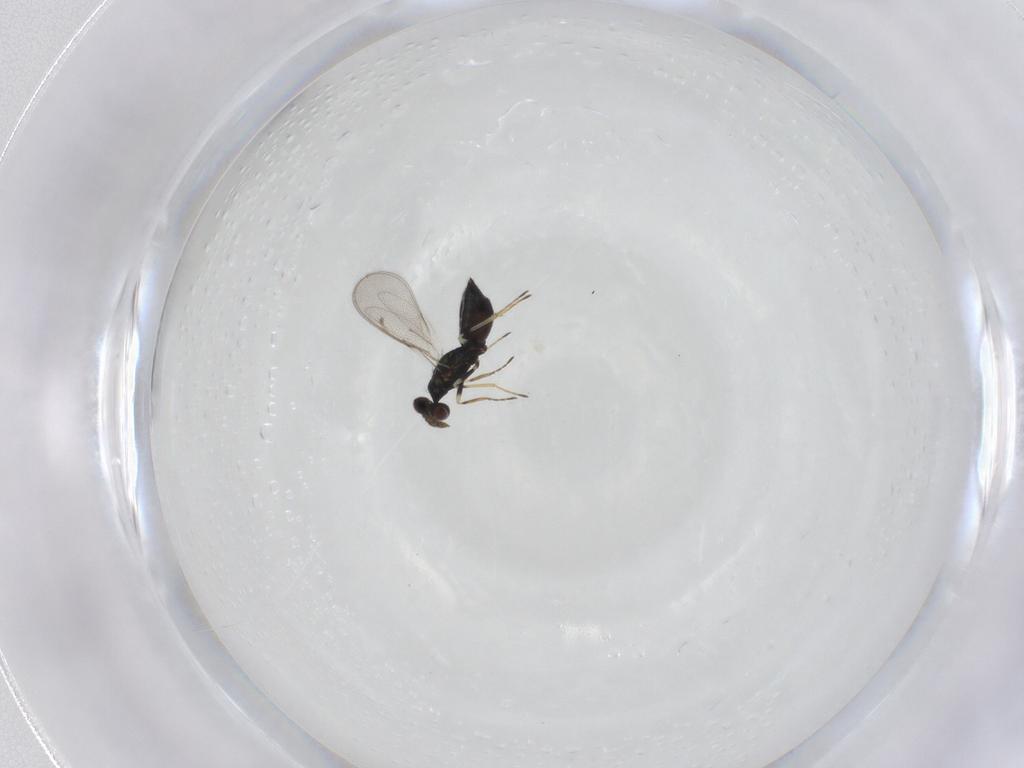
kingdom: Animalia
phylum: Arthropoda
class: Insecta
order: Hymenoptera
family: Eulophidae
